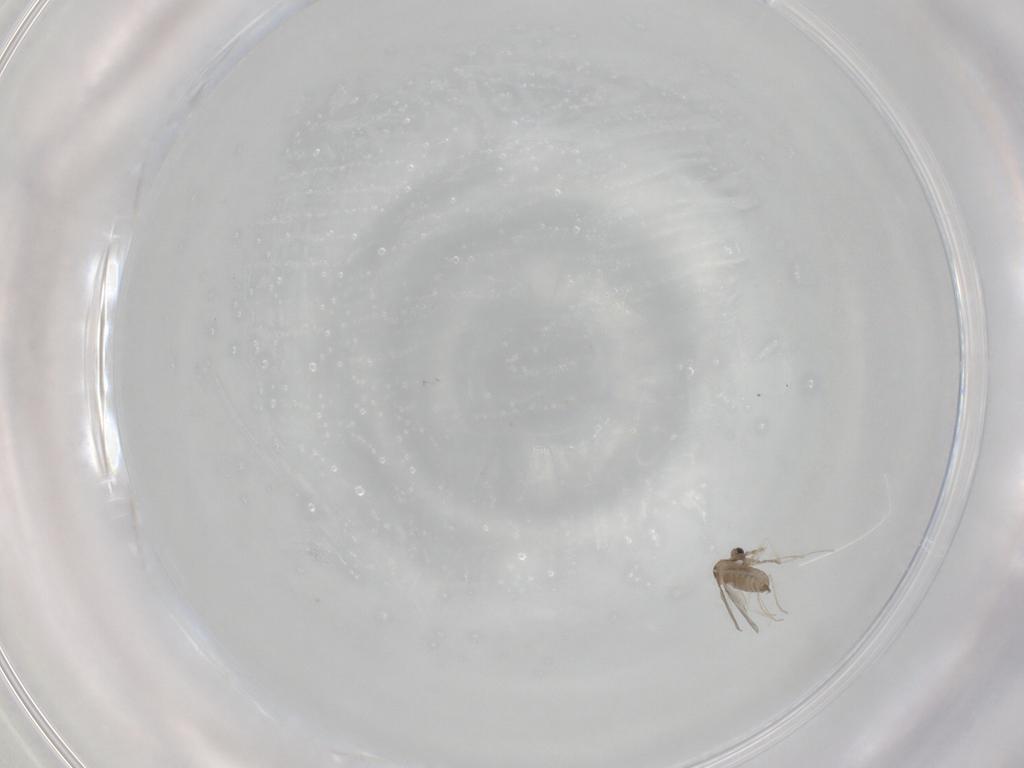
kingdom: Animalia
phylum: Arthropoda
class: Insecta
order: Diptera
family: Cecidomyiidae
